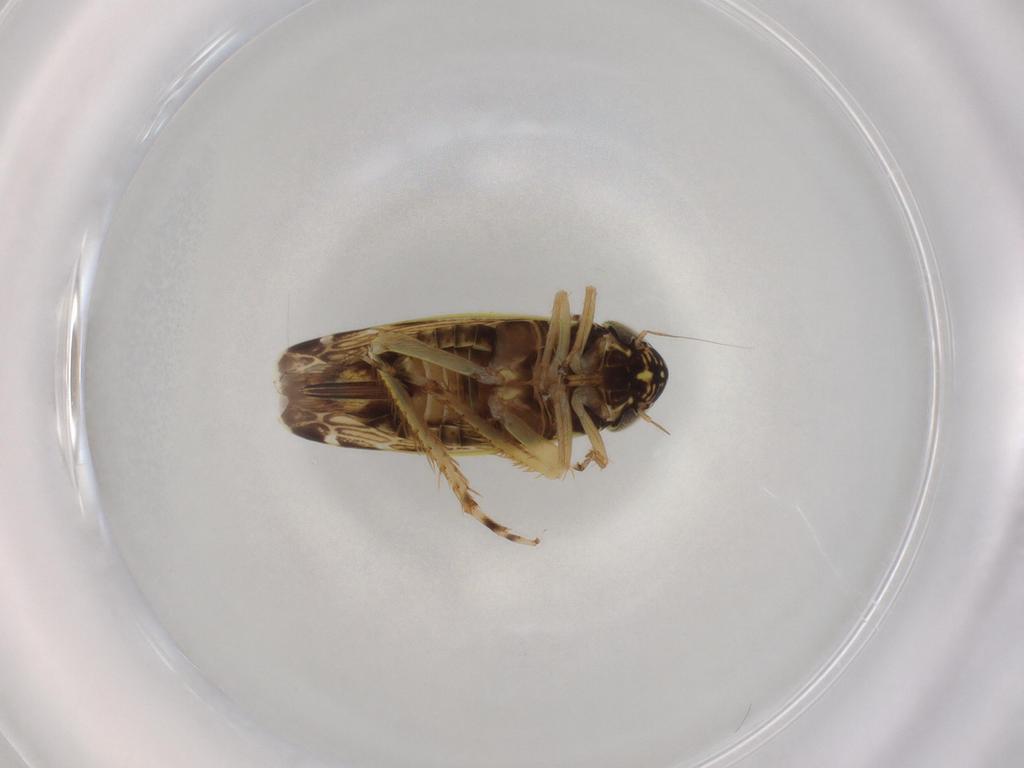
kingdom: Animalia
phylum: Arthropoda
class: Insecta
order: Hemiptera
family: Cicadellidae
